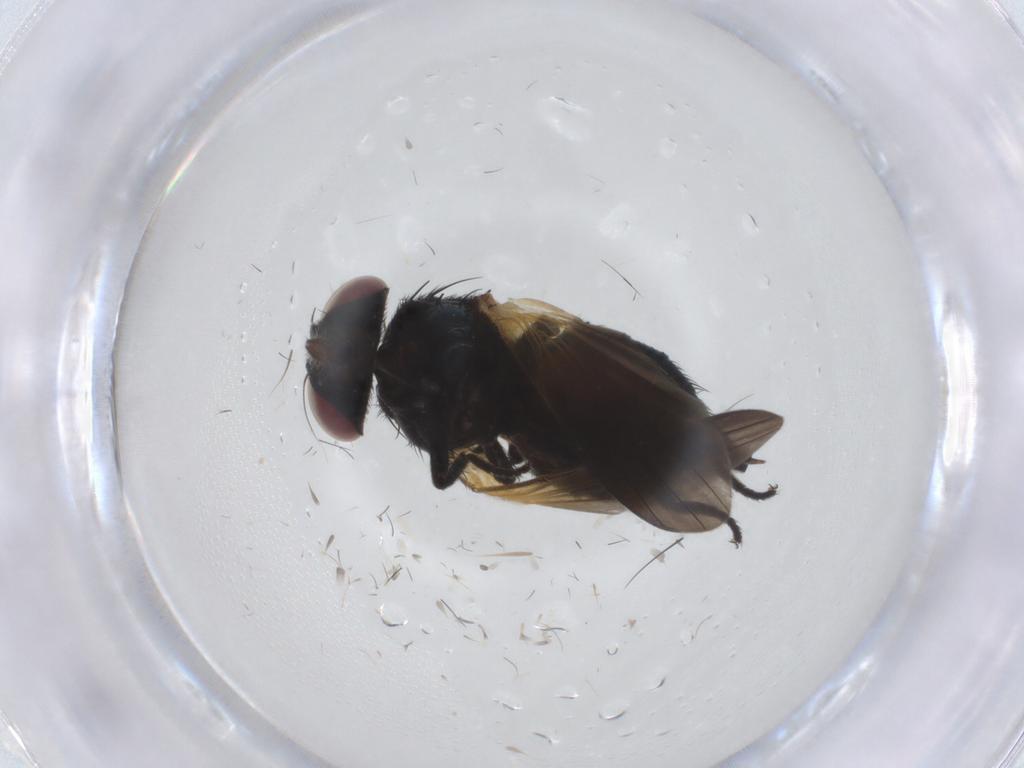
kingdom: Animalia
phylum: Arthropoda
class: Insecta
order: Diptera
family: Lonchaeidae
